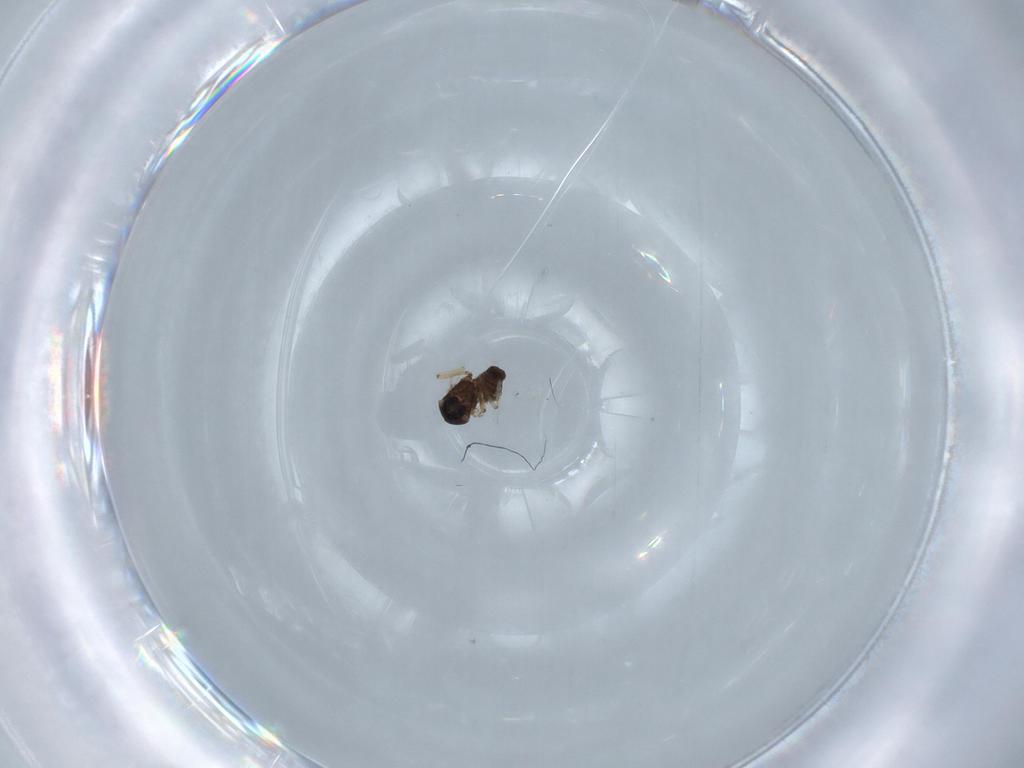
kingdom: Animalia
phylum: Arthropoda
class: Insecta
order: Diptera
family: Ceratopogonidae
